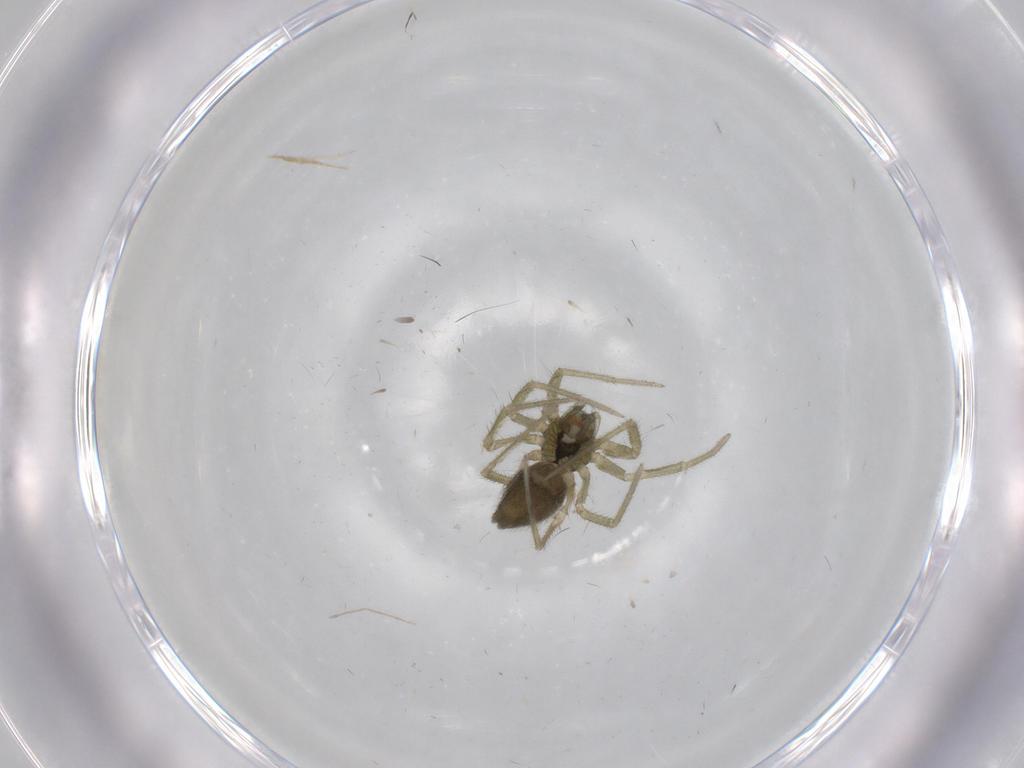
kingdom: Animalia
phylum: Arthropoda
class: Arachnida
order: Araneae
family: Linyphiidae
